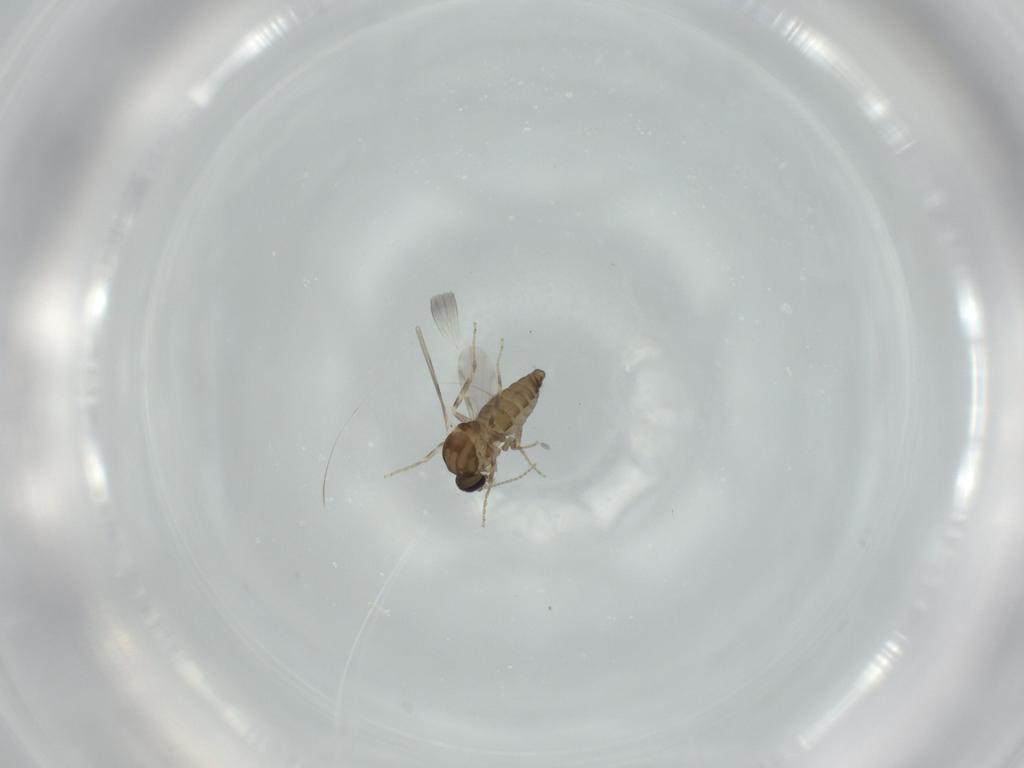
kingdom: Animalia
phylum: Arthropoda
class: Insecta
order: Diptera
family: Ceratopogonidae
